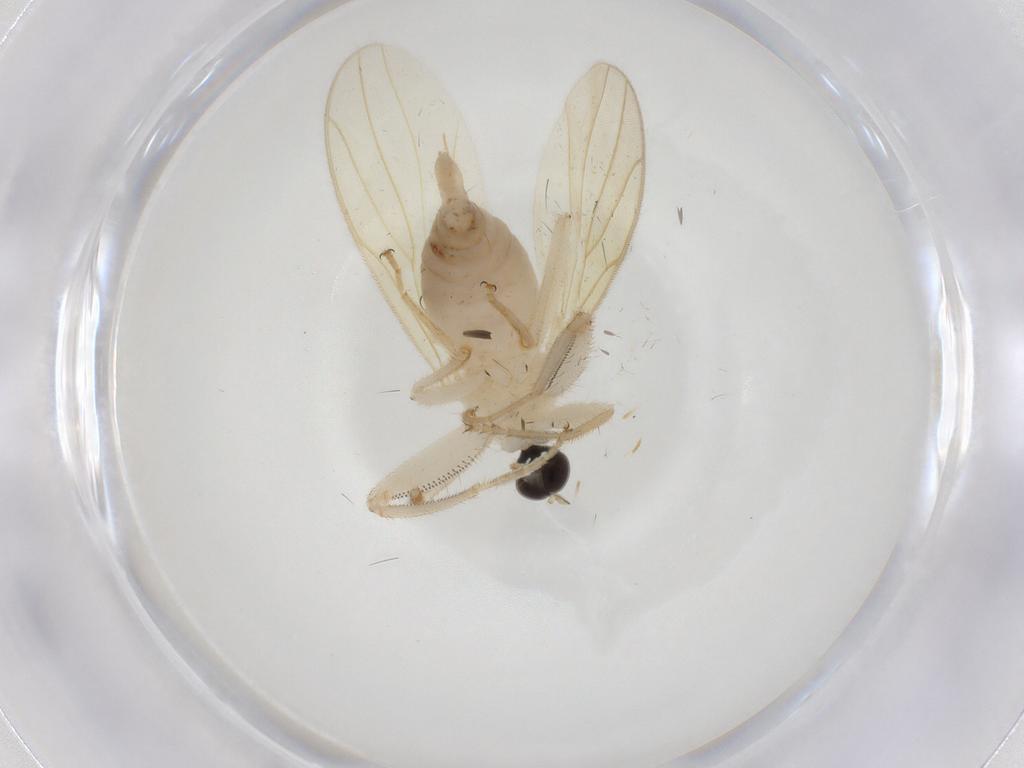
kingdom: Animalia
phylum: Arthropoda
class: Insecta
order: Diptera
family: Hybotidae
